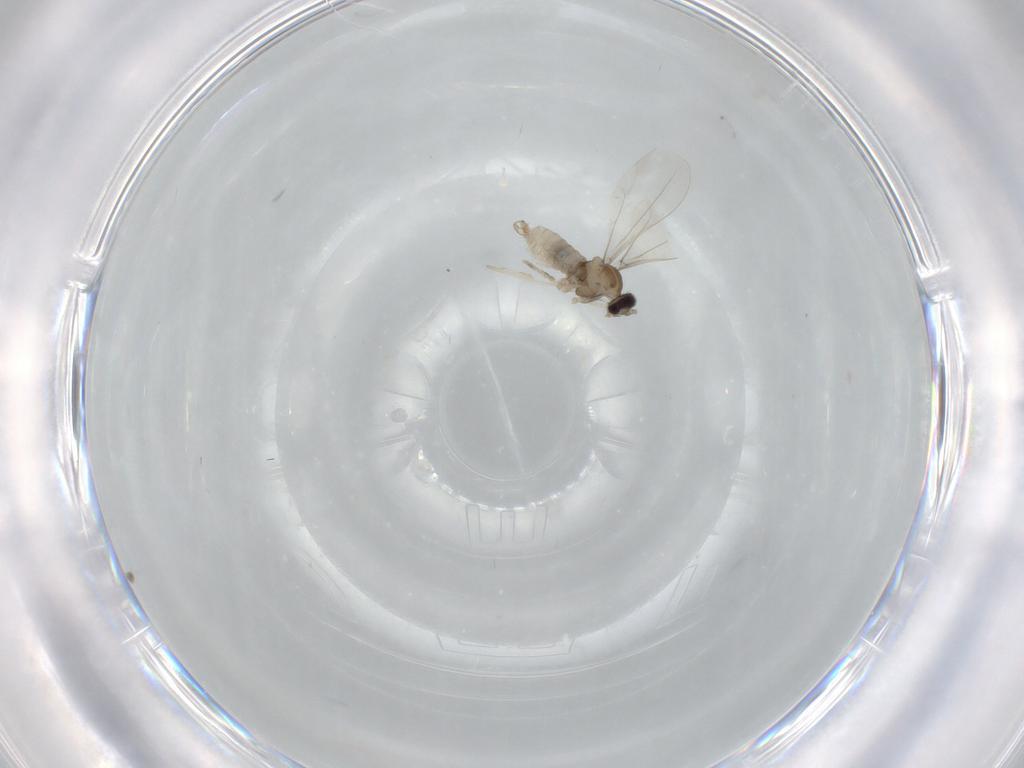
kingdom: Animalia
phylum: Arthropoda
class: Insecta
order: Diptera
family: Cecidomyiidae
